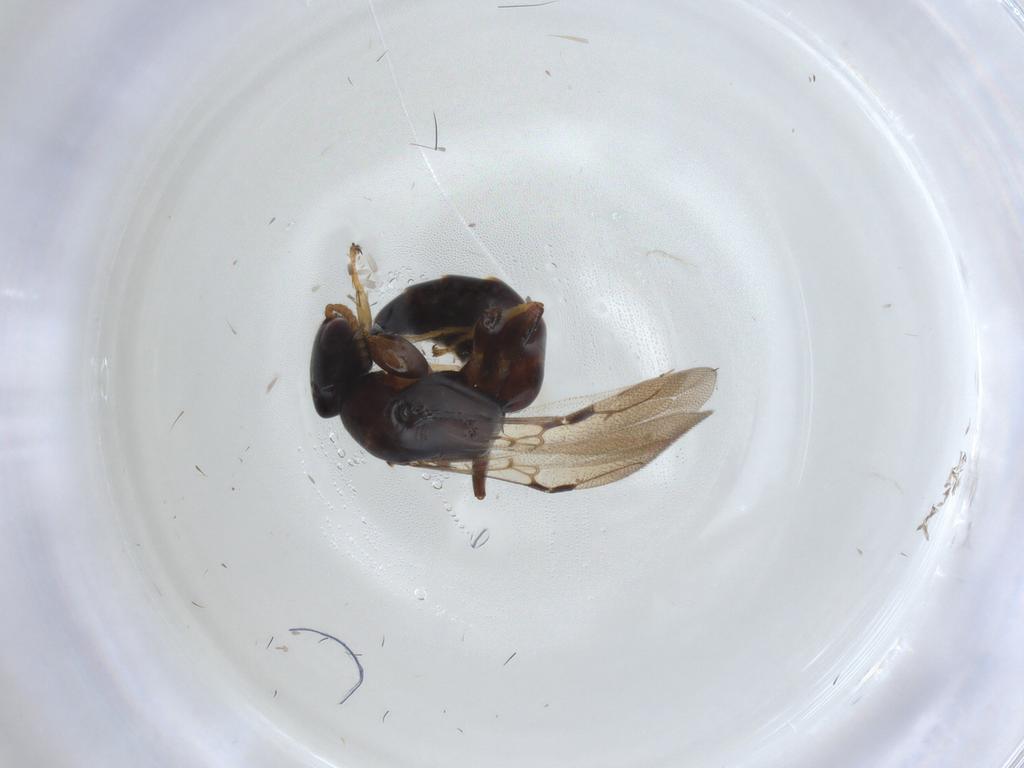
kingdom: Animalia
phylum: Arthropoda
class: Insecta
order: Hymenoptera
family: Bethylidae
